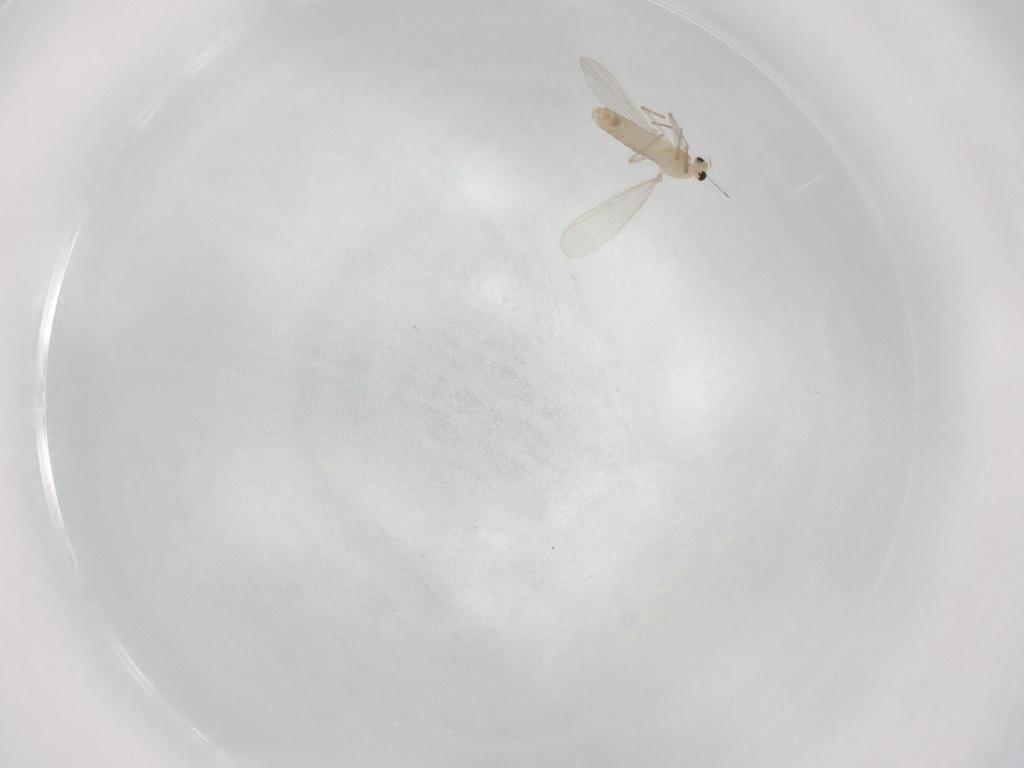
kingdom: Animalia
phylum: Arthropoda
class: Insecta
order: Diptera
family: Chironomidae
